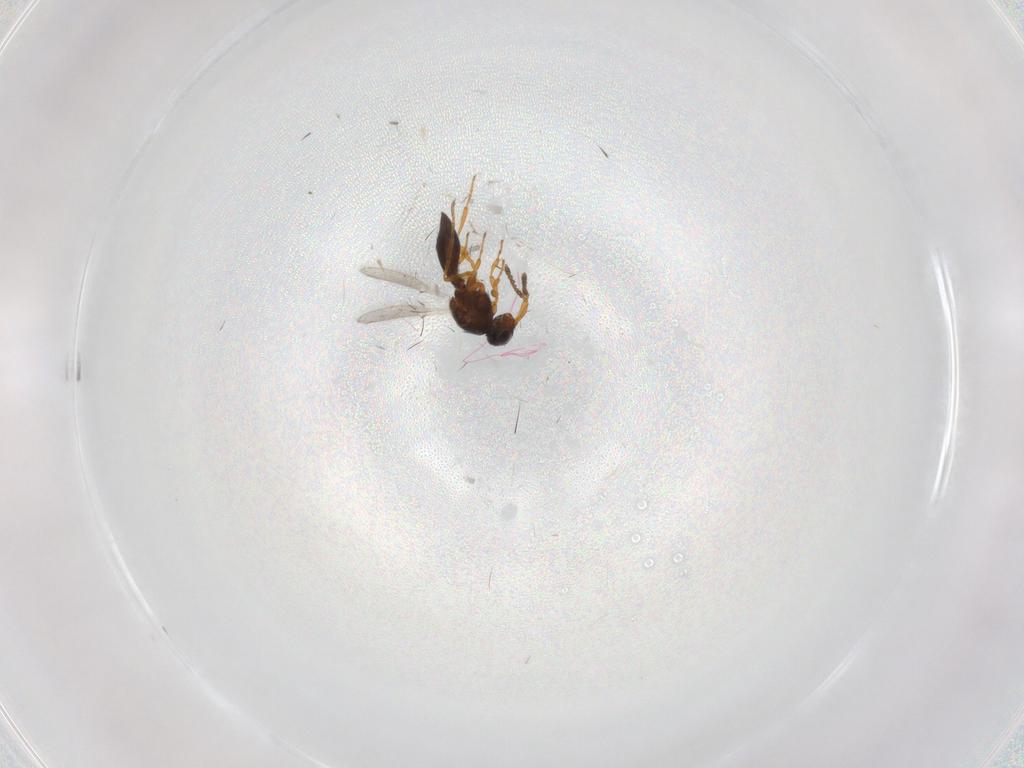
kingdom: Animalia
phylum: Arthropoda
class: Insecta
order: Hymenoptera
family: Platygastridae
